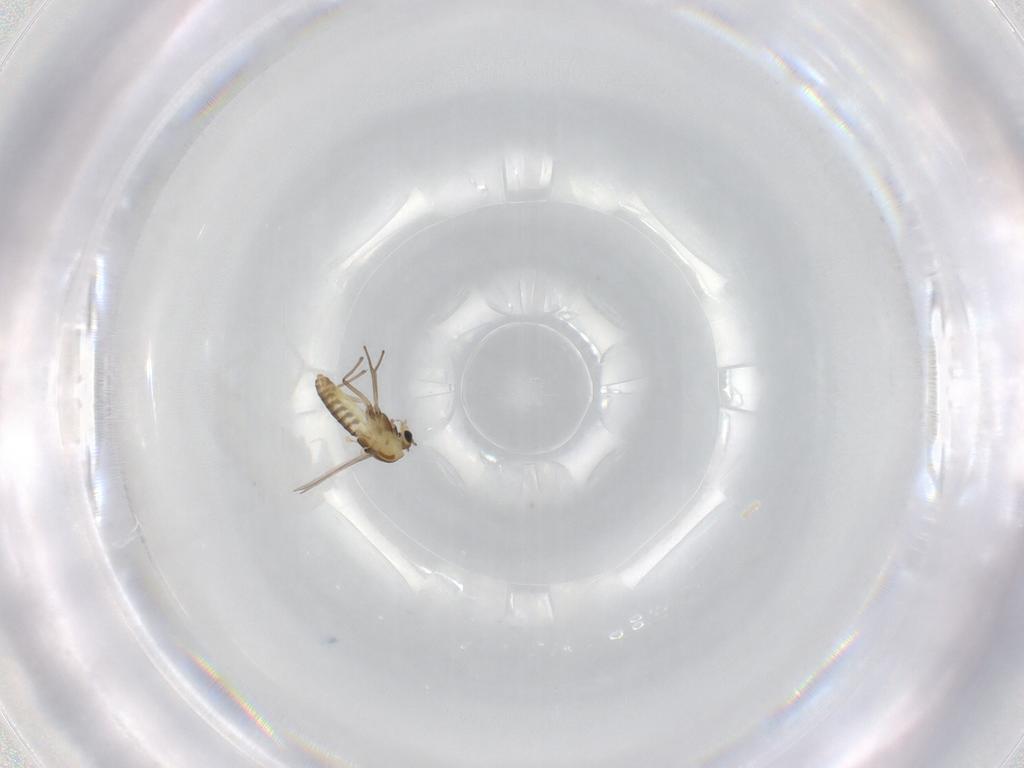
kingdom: Animalia
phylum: Arthropoda
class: Insecta
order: Diptera
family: Chironomidae
